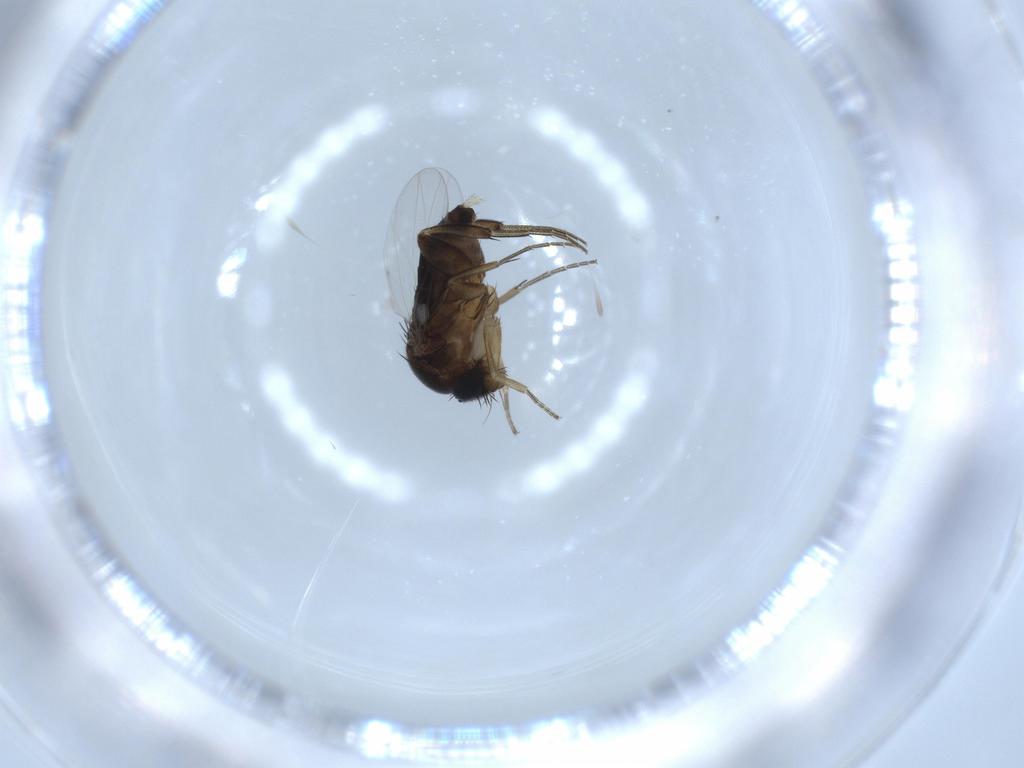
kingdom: Animalia
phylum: Arthropoda
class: Insecta
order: Diptera
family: Phoridae
